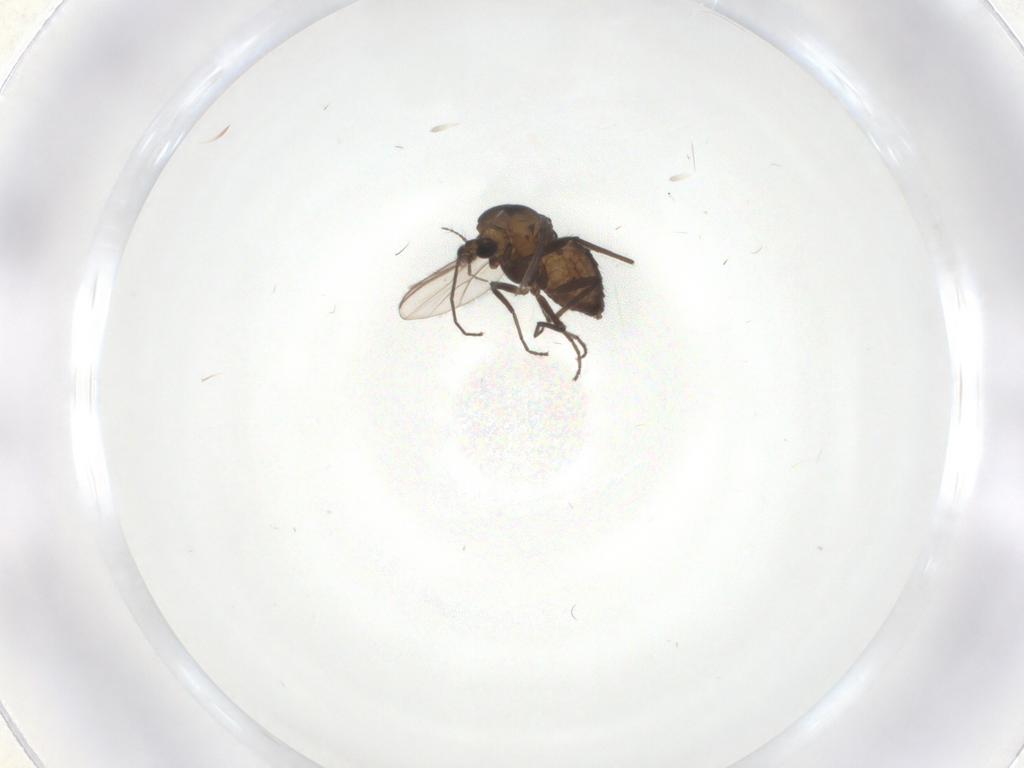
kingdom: Animalia
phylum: Arthropoda
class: Insecta
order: Diptera
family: Chironomidae
